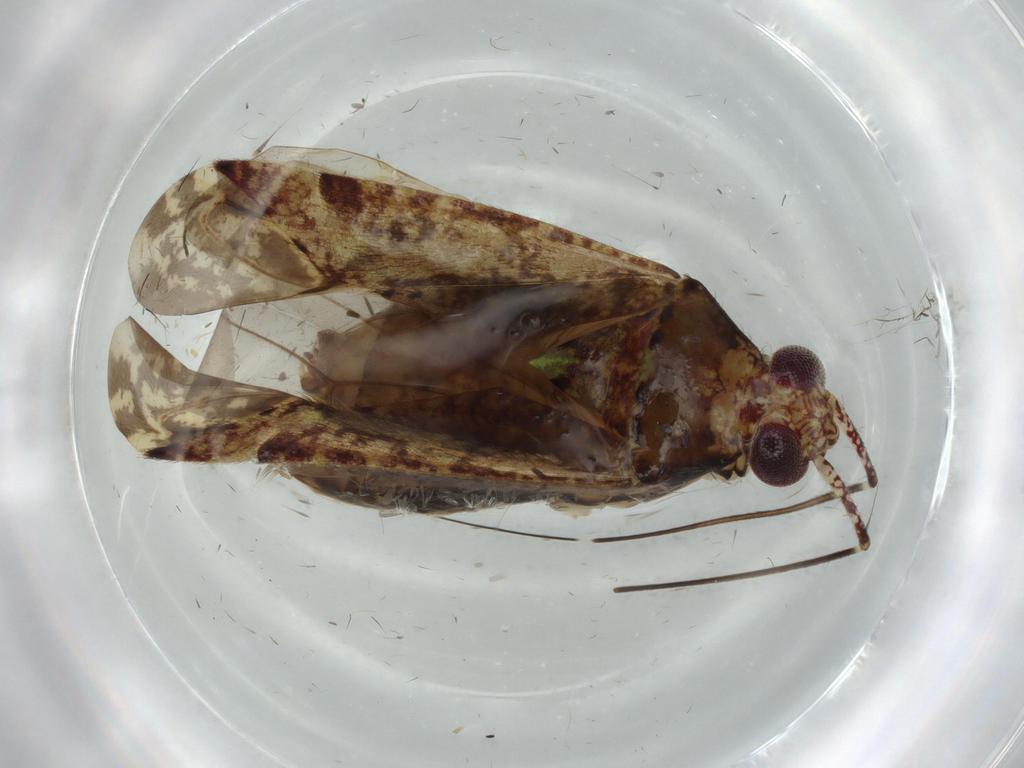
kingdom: Animalia
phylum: Arthropoda
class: Insecta
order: Hemiptera
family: Miridae
